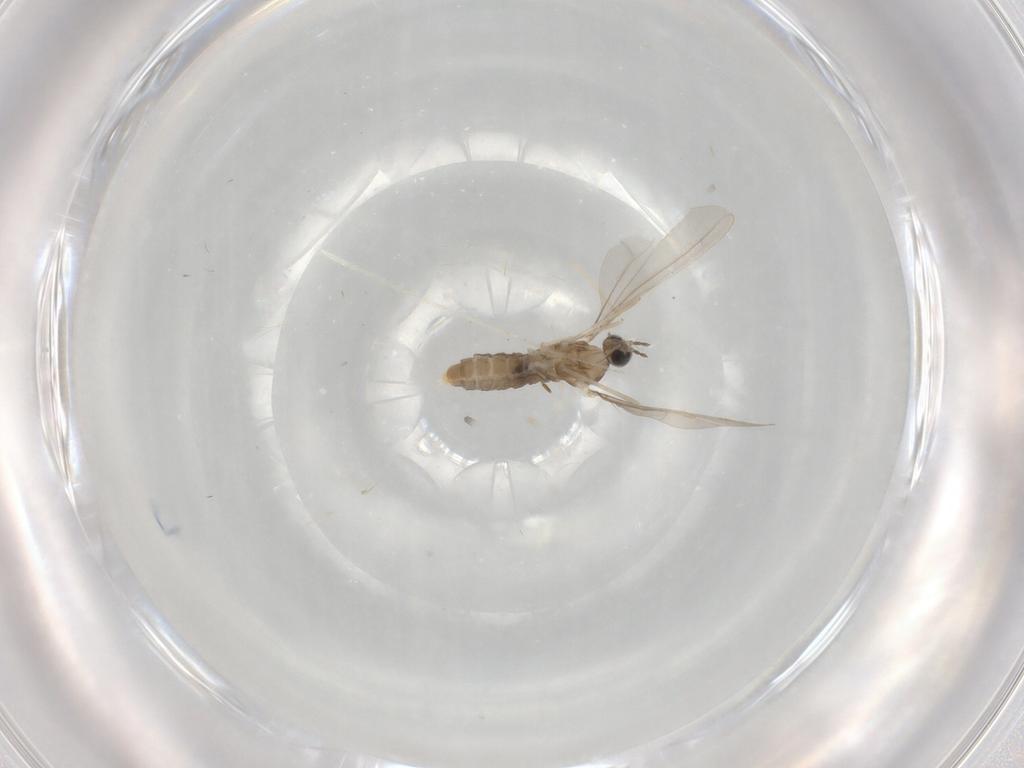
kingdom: Animalia
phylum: Arthropoda
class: Insecta
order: Diptera
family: Cecidomyiidae
